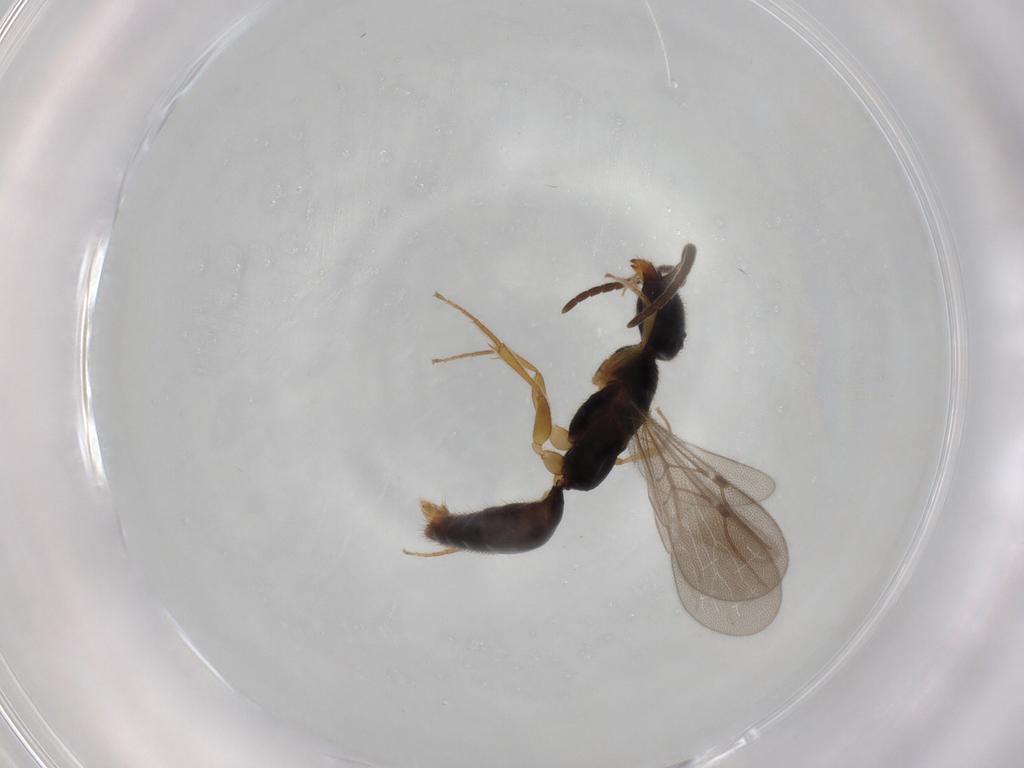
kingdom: Animalia
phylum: Arthropoda
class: Insecta
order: Hymenoptera
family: Bethylidae
